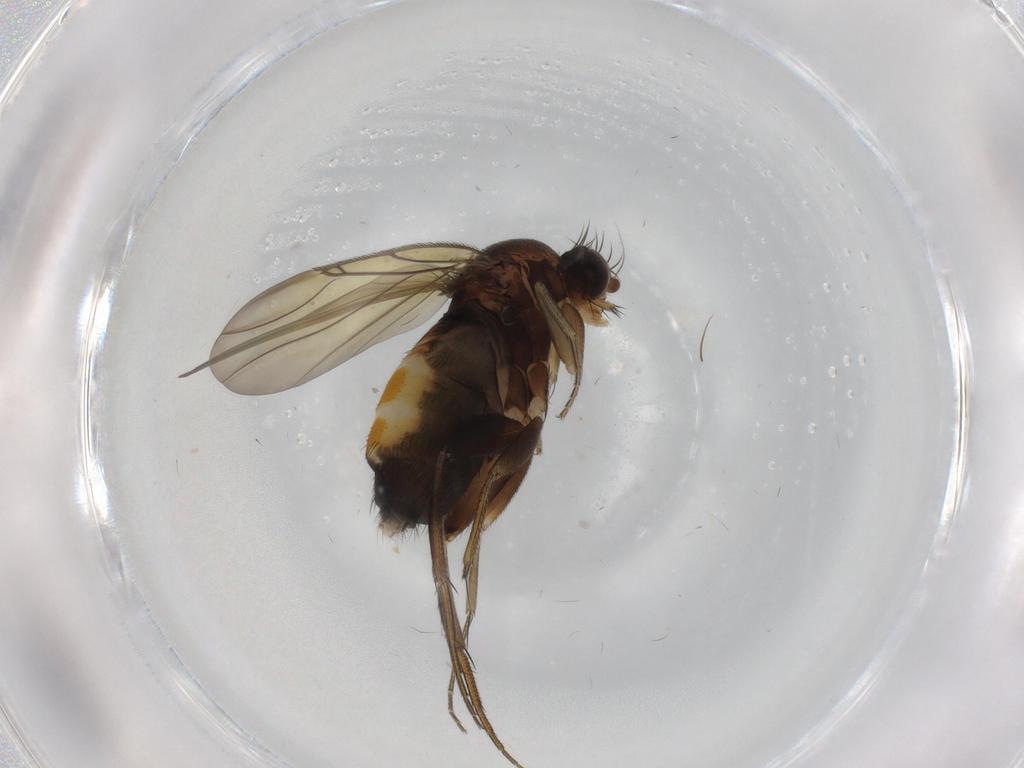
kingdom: Animalia
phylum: Arthropoda
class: Insecta
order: Diptera
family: Phoridae
